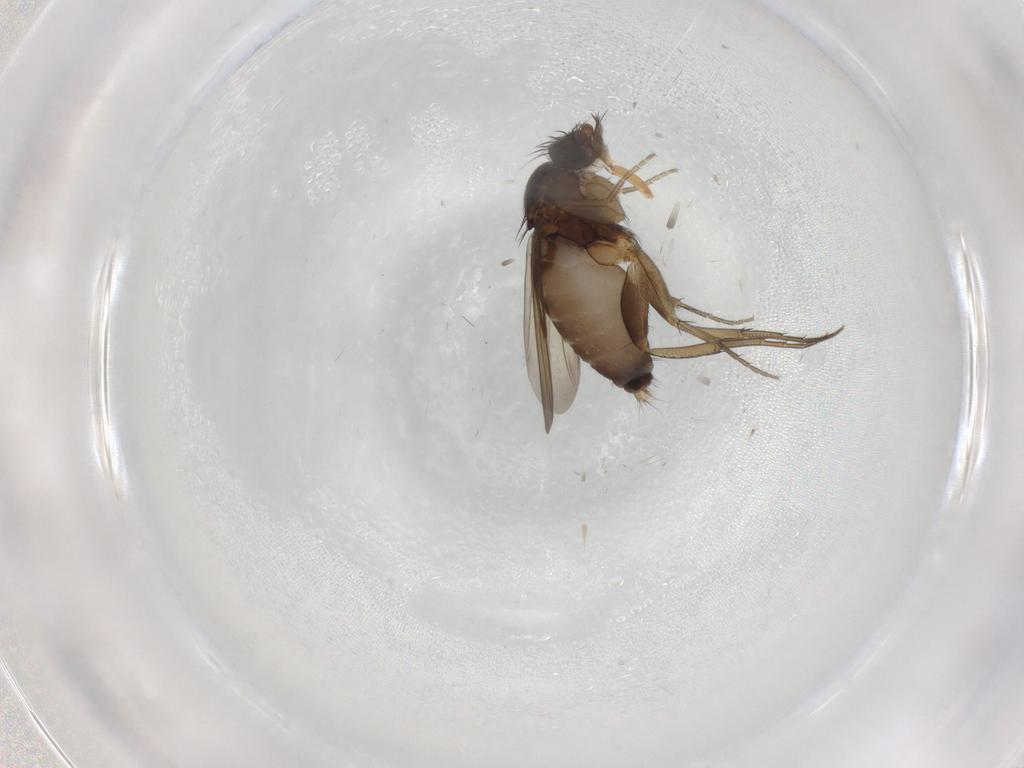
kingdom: Animalia
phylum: Arthropoda
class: Insecta
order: Diptera
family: Phoridae
